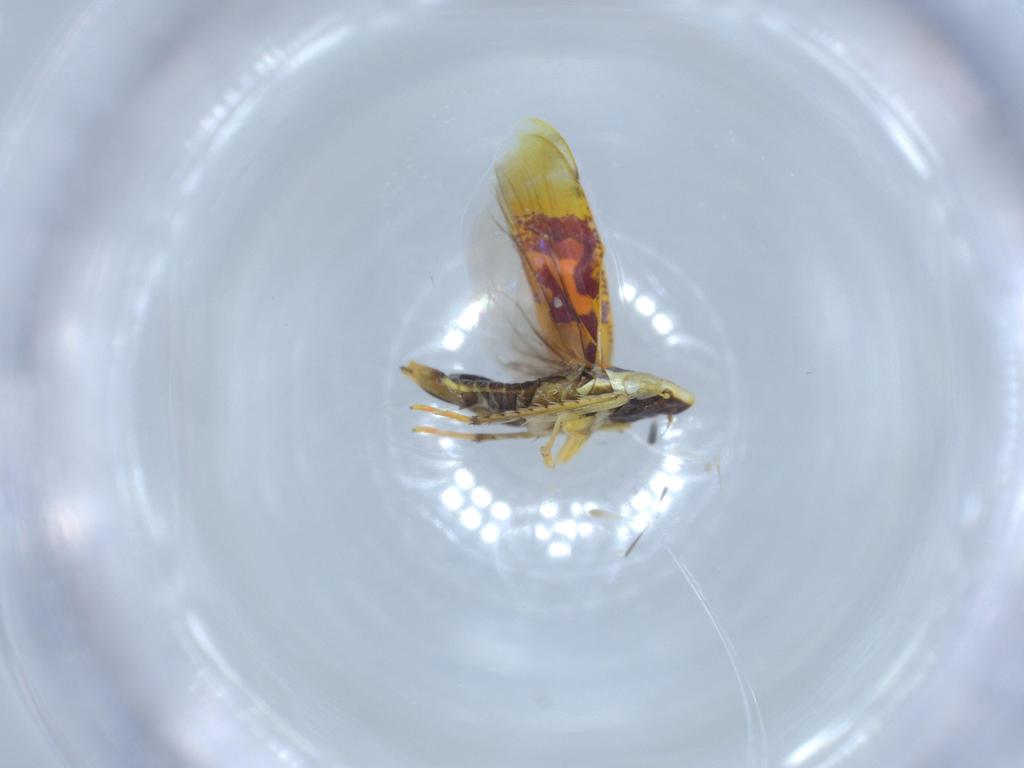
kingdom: Animalia
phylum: Arthropoda
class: Insecta
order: Hemiptera
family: Cicadellidae
